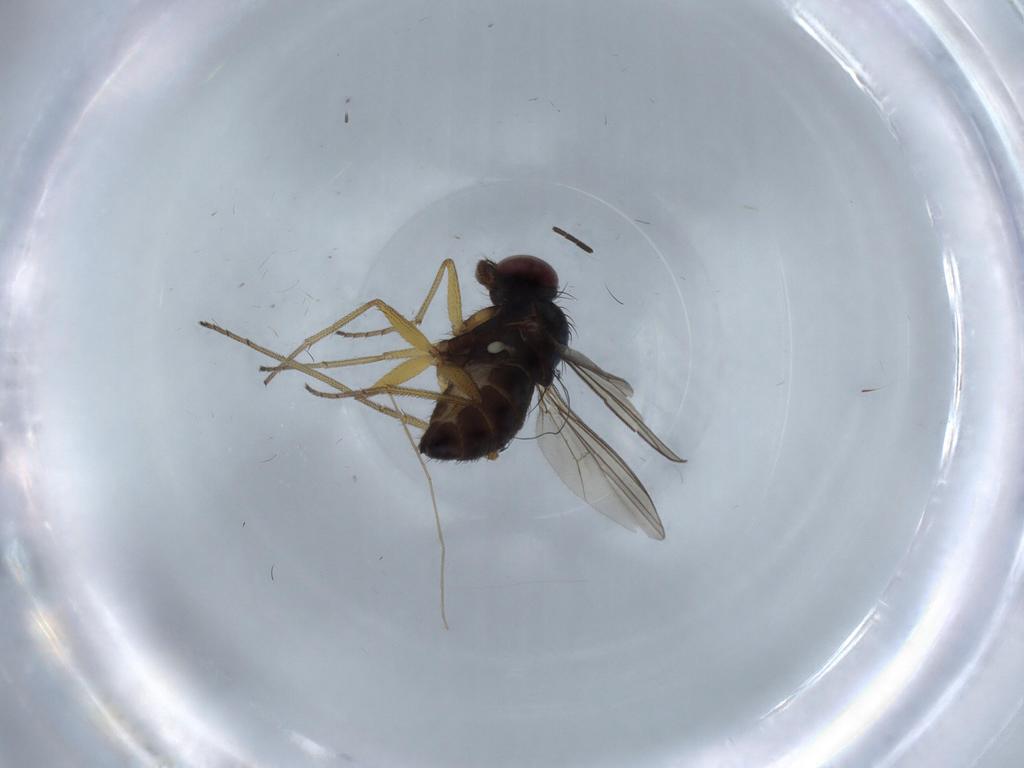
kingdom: Animalia
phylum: Arthropoda
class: Insecta
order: Diptera
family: Dolichopodidae
